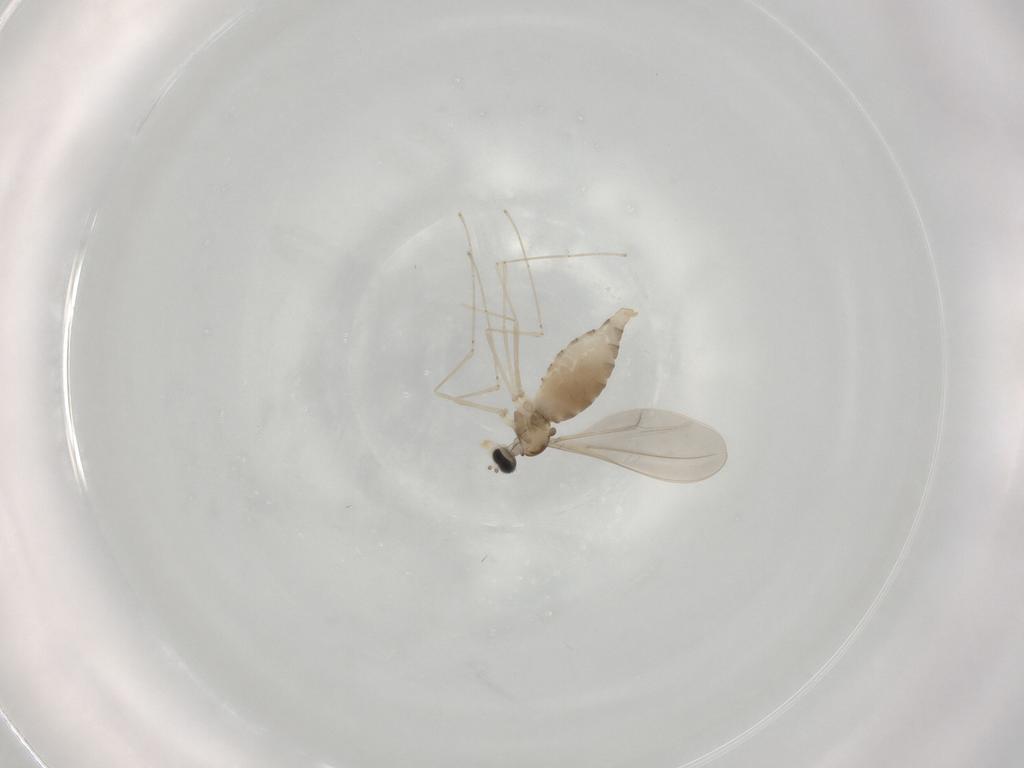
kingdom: Animalia
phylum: Arthropoda
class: Insecta
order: Diptera
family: Cecidomyiidae
